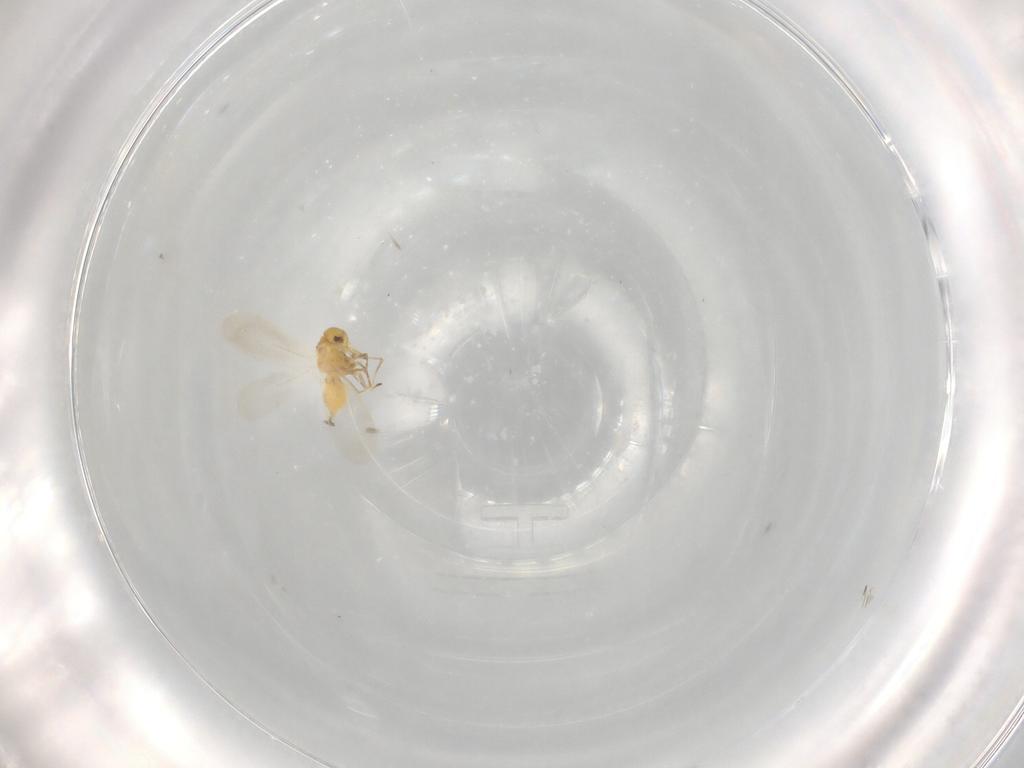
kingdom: Animalia
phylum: Arthropoda
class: Insecta
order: Hemiptera
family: Aleyrodidae
